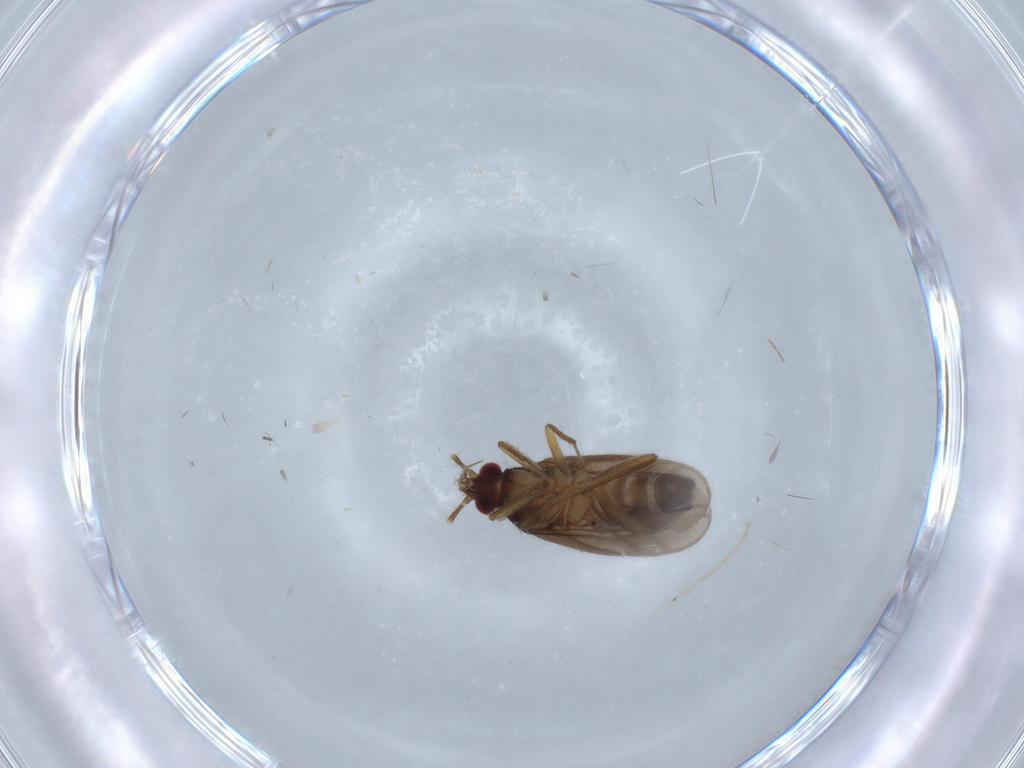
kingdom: Animalia
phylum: Arthropoda
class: Insecta
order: Hemiptera
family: Ceratocombidae
